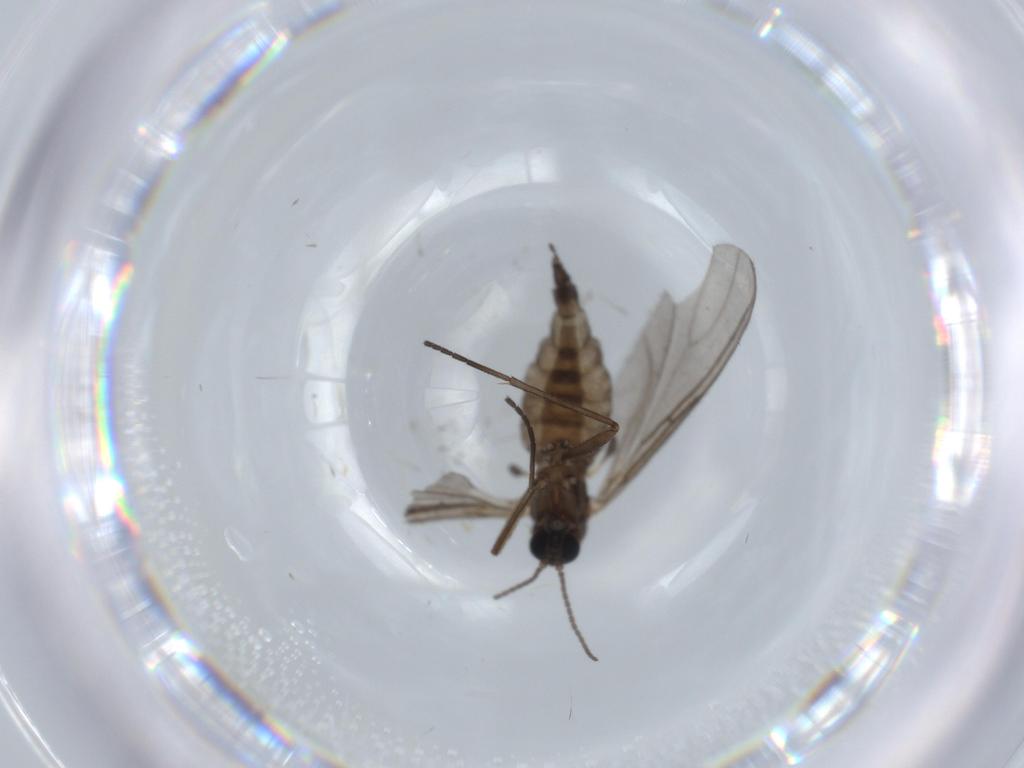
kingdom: Animalia
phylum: Arthropoda
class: Insecta
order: Diptera
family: Sciaridae
